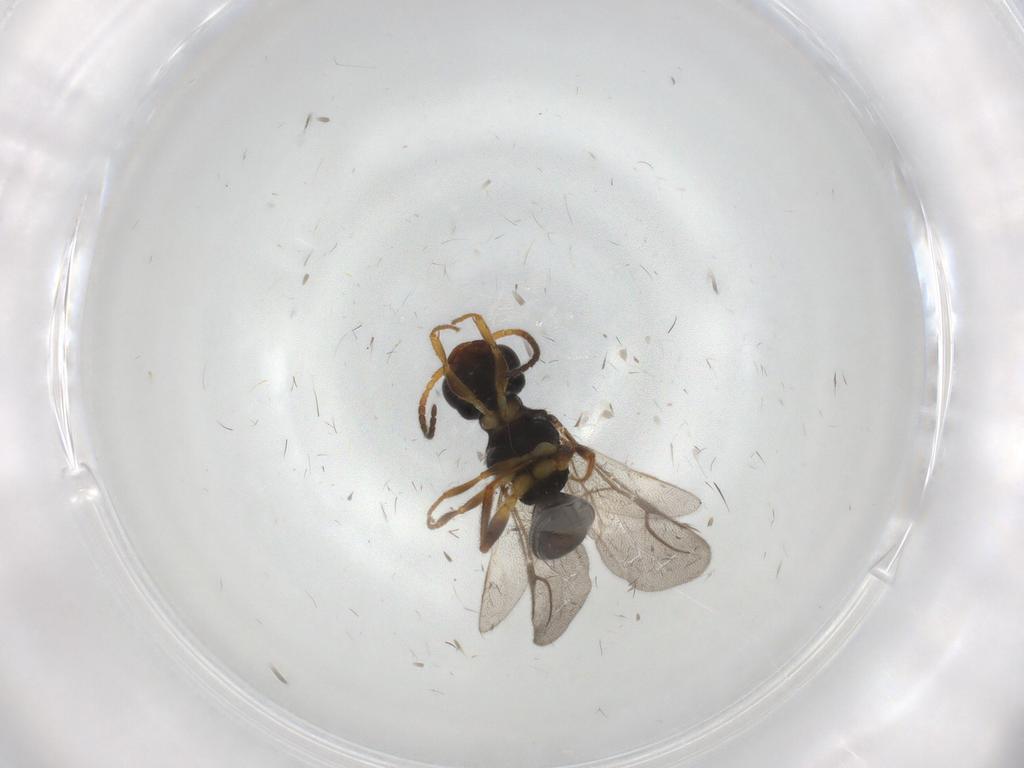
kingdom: Animalia
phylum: Arthropoda
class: Insecta
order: Hymenoptera
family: Bethylidae
